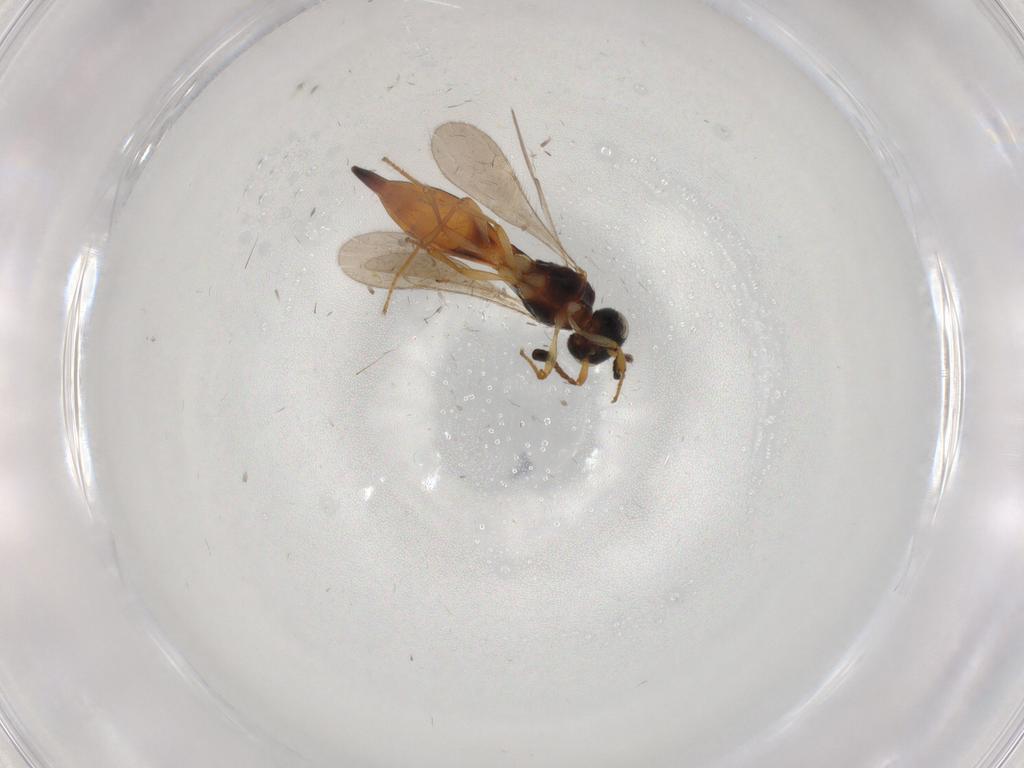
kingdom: Animalia
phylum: Arthropoda
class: Insecta
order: Hymenoptera
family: Scelionidae
